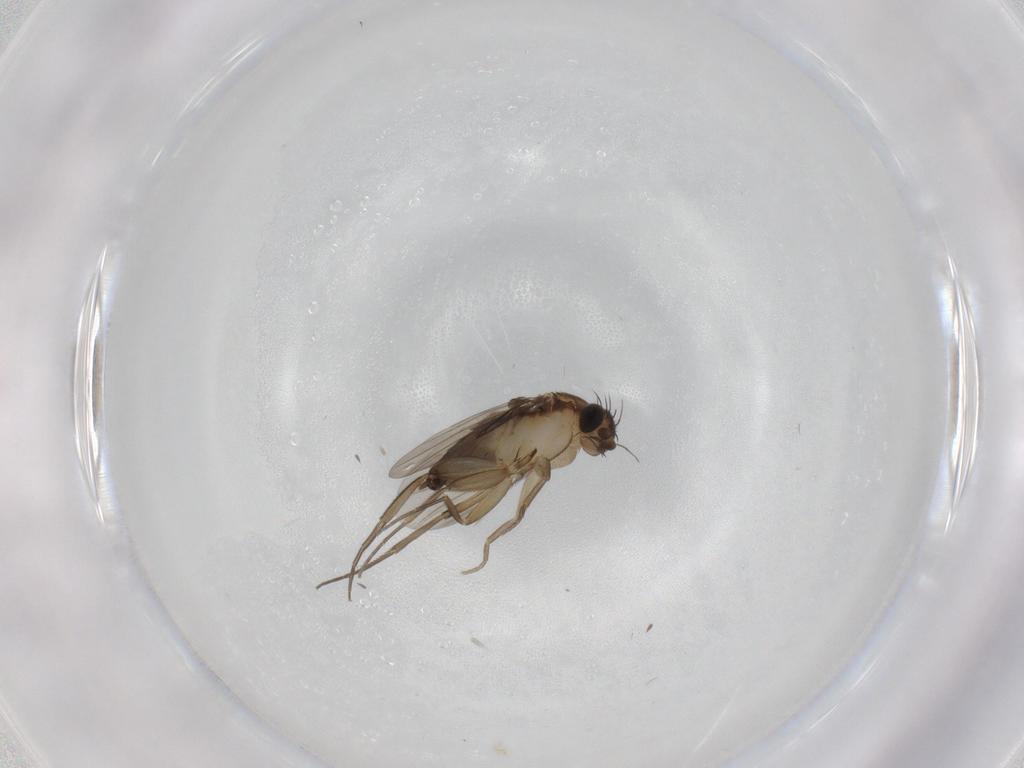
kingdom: Animalia
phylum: Arthropoda
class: Insecta
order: Diptera
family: Phoridae
